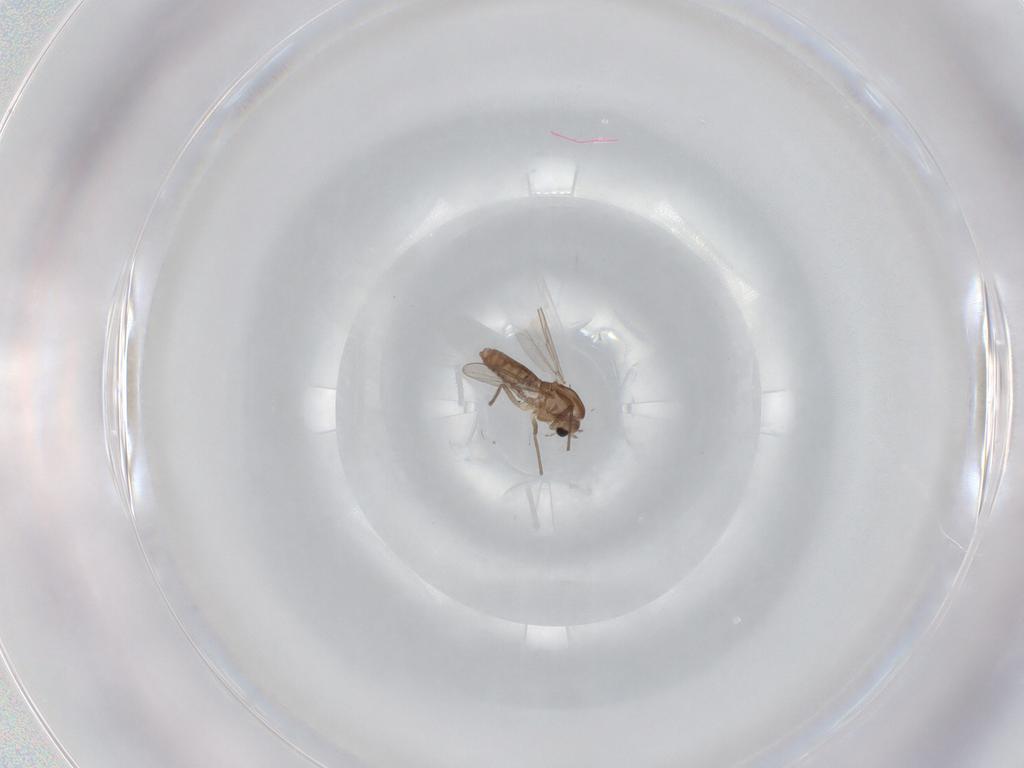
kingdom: Animalia
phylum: Arthropoda
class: Insecta
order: Diptera
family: Chironomidae
